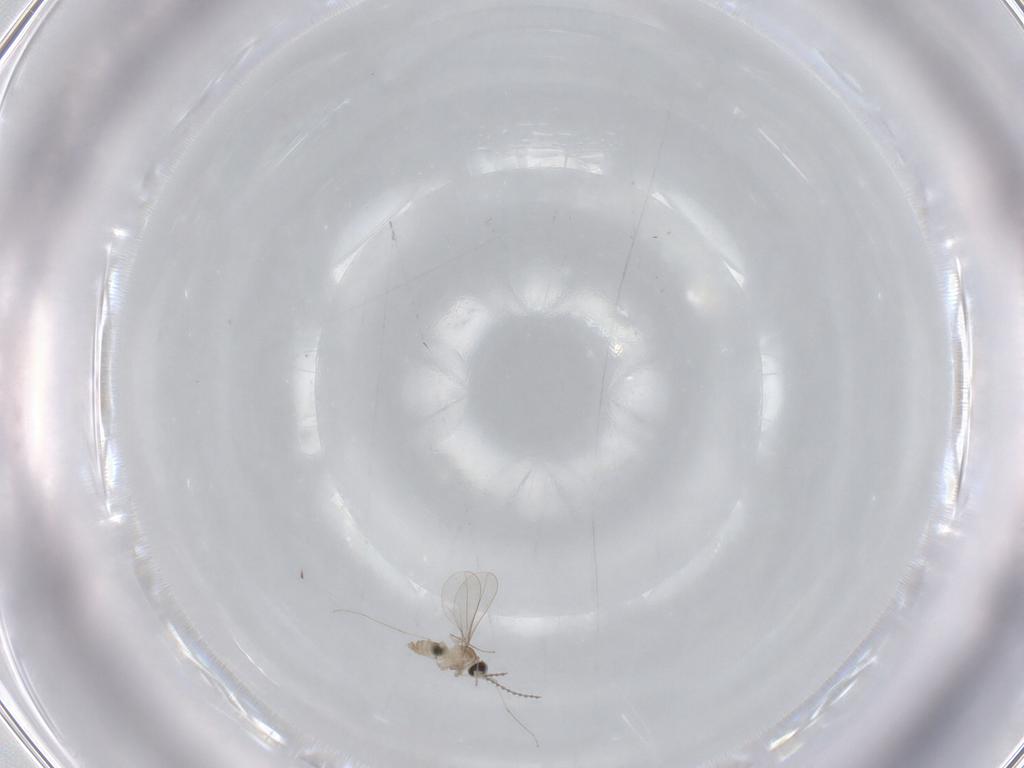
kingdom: Animalia
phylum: Arthropoda
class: Insecta
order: Diptera
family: Cecidomyiidae
